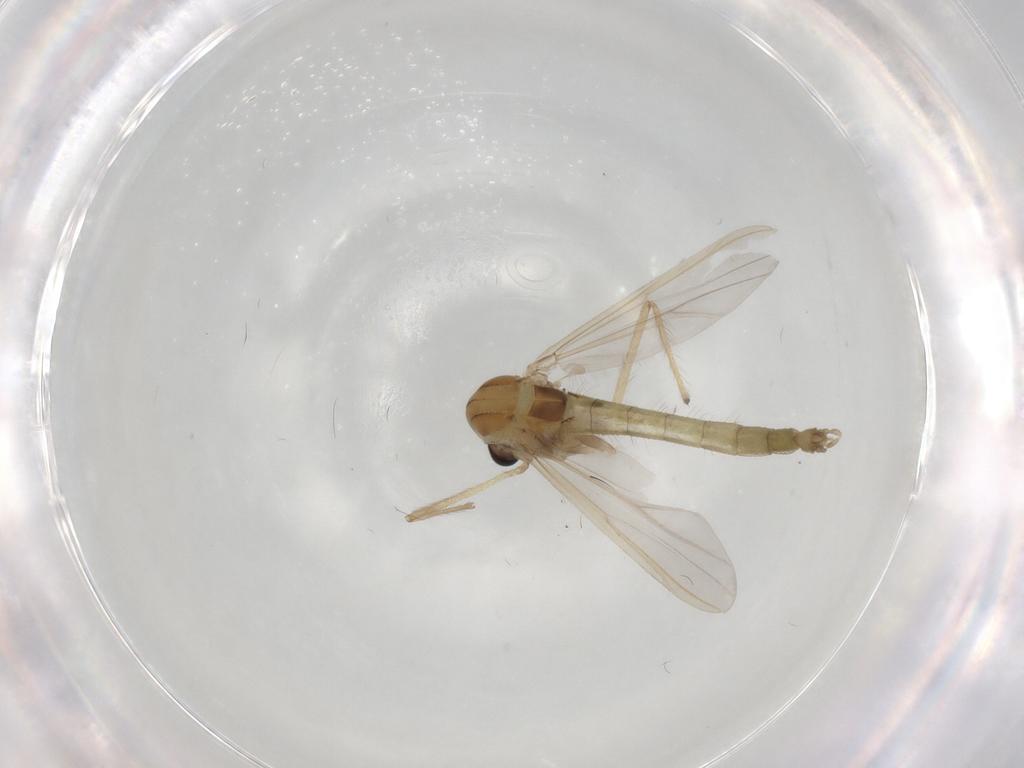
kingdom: Animalia
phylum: Arthropoda
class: Insecta
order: Diptera
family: Chironomidae
